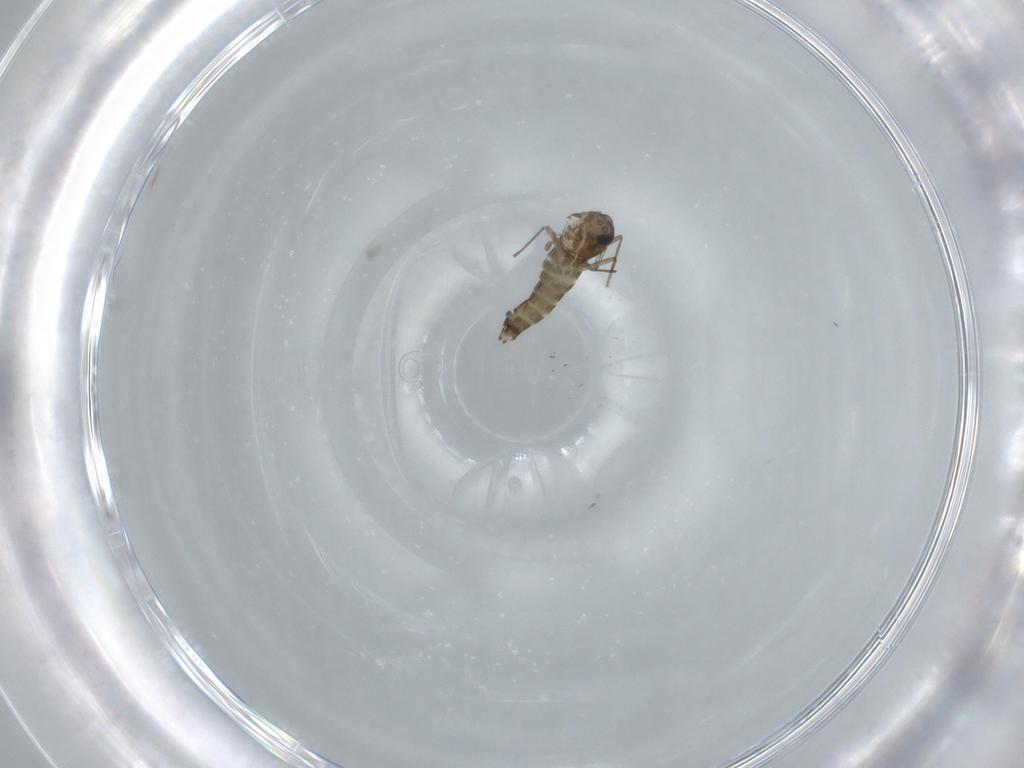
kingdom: Animalia
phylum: Arthropoda
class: Insecta
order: Diptera
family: Chironomidae
